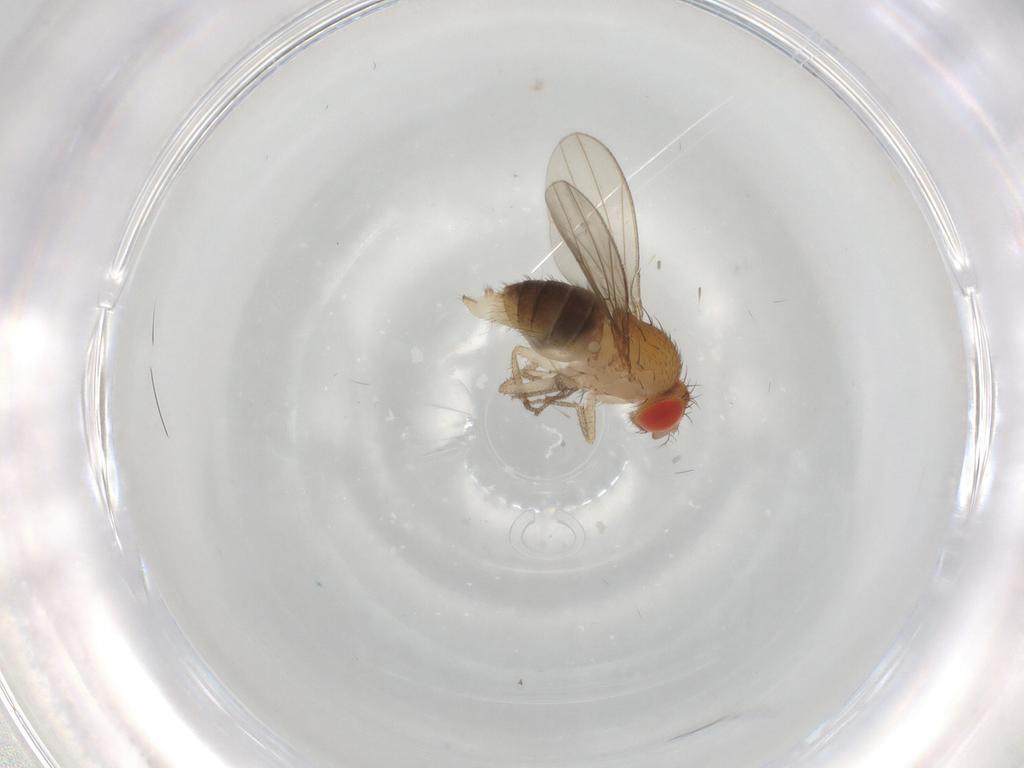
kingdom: Animalia
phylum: Arthropoda
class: Insecta
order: Diptera
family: Drosophilidae
